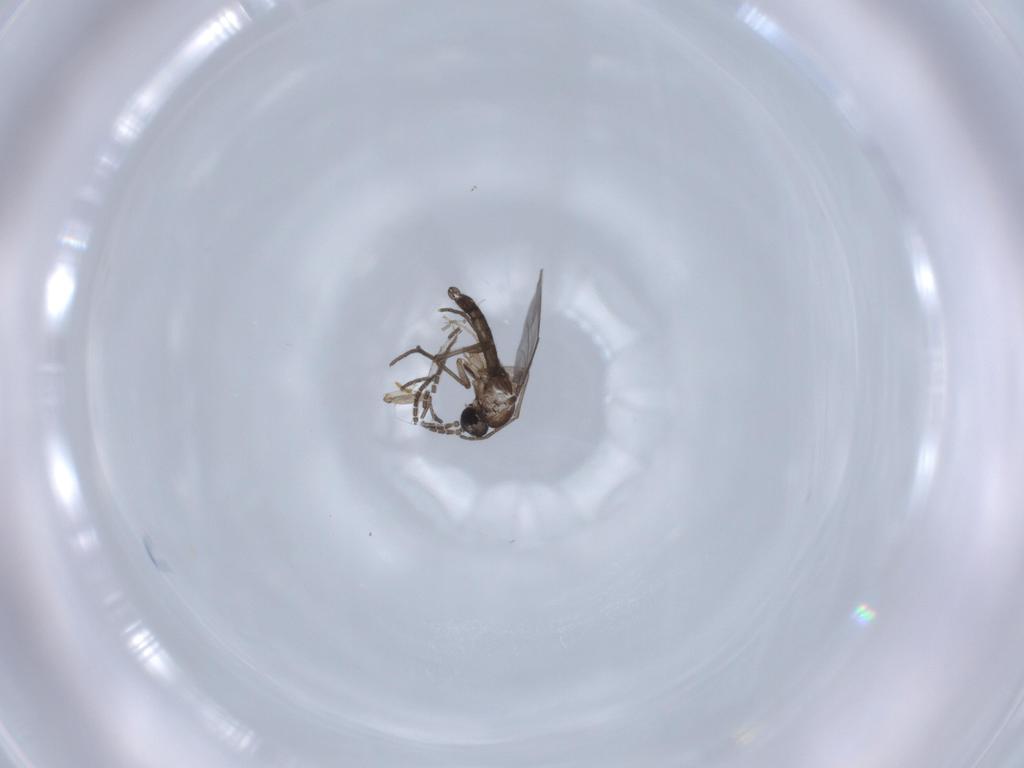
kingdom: Animalia
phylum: Arthropoda
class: Insecta
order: Diptera
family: Sciaridae
